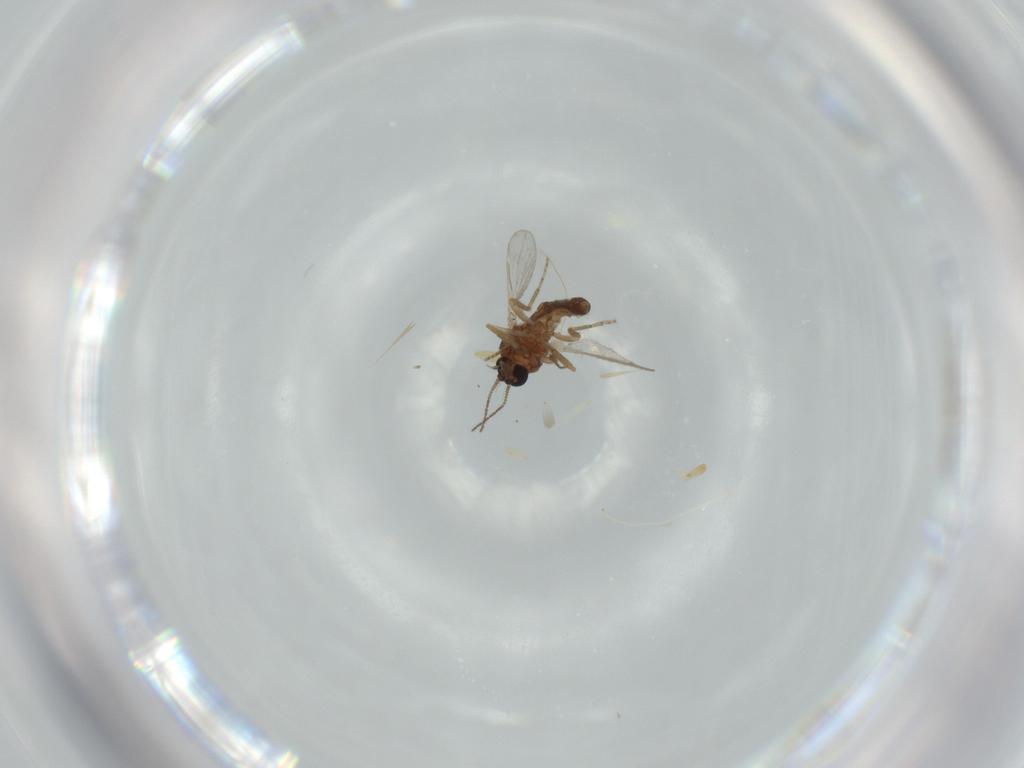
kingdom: Animalia
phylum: Arthropoda
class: Insecta
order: Diptera
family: Ceratopogonidae
